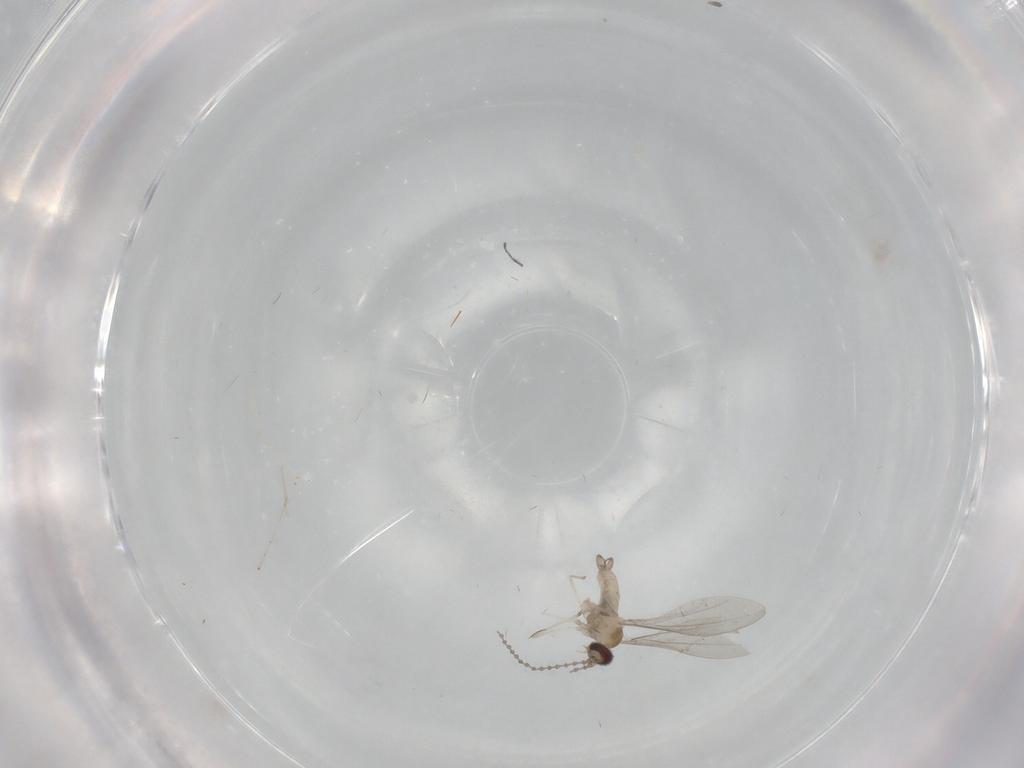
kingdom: Animalia
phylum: Arthropoda
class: Insecta
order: Diptera
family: Cecidomyiidae
